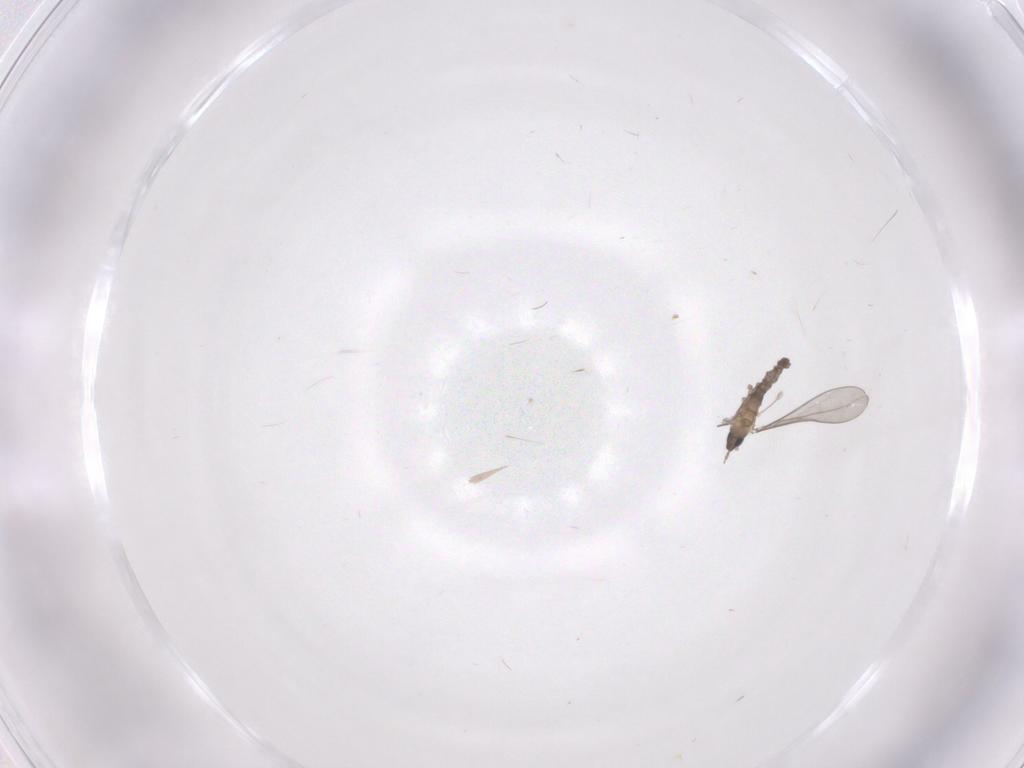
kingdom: Animalia
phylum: Arthropoda
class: Insecta
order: Diptera
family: Cecidomyiidae
